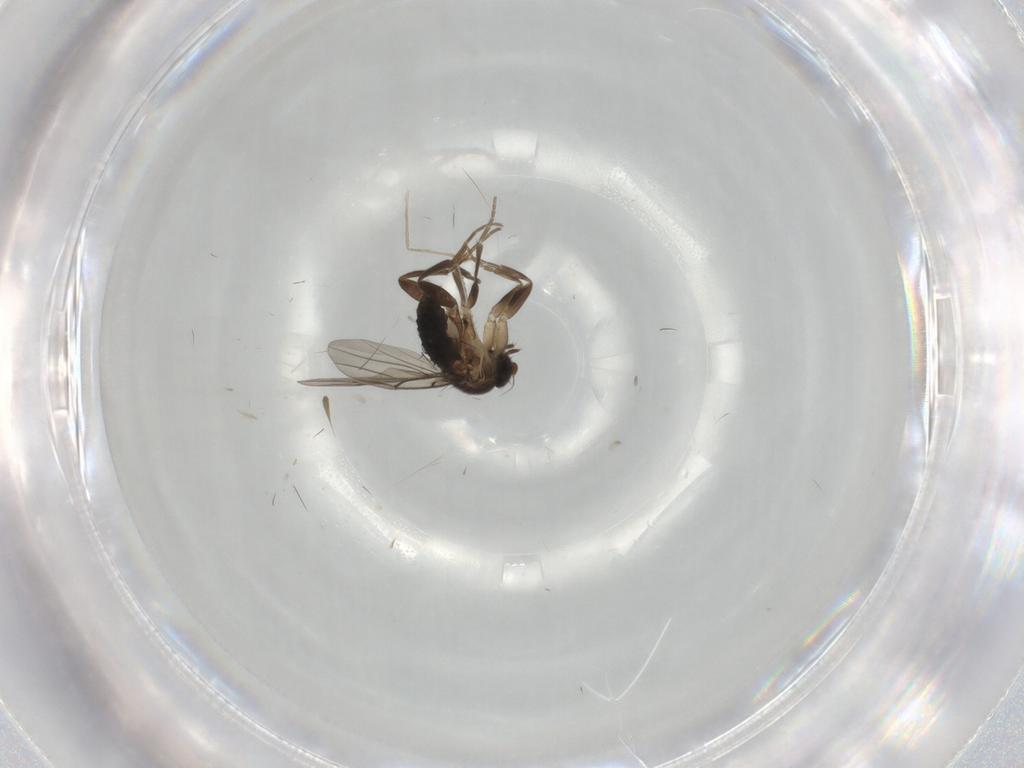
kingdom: Animalia
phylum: Arthropoda
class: Insecta
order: Diptera
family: Phoridae
